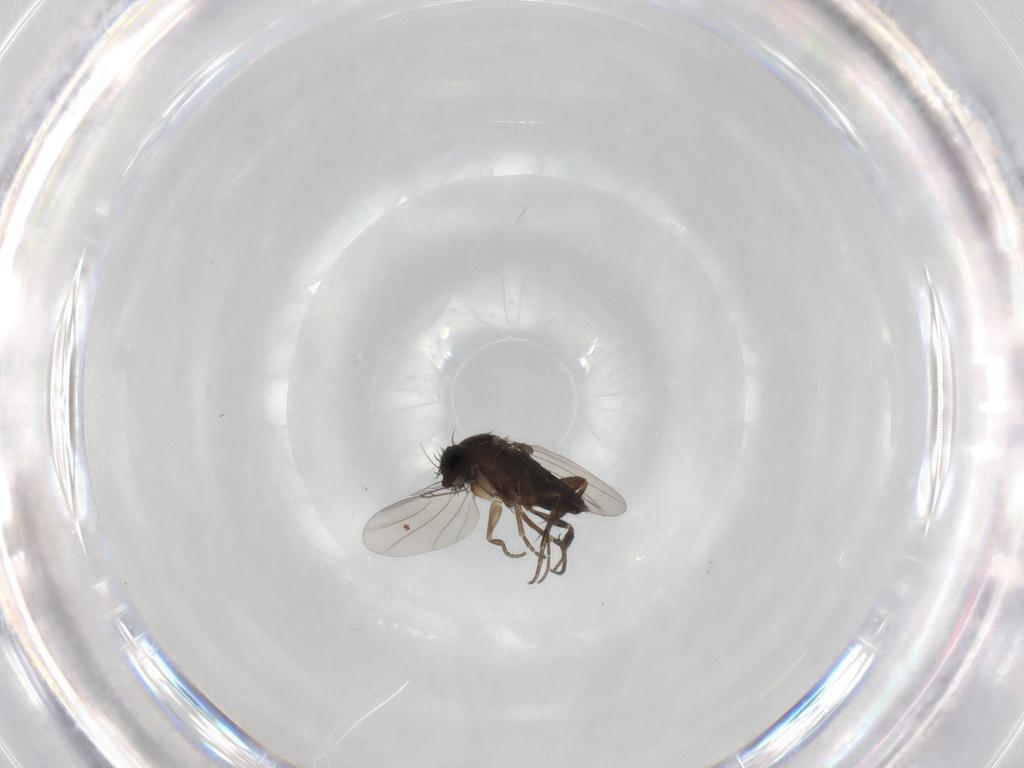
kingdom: Animalia
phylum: Arthropoda
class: Insecta
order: Diptera
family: Phoridae
